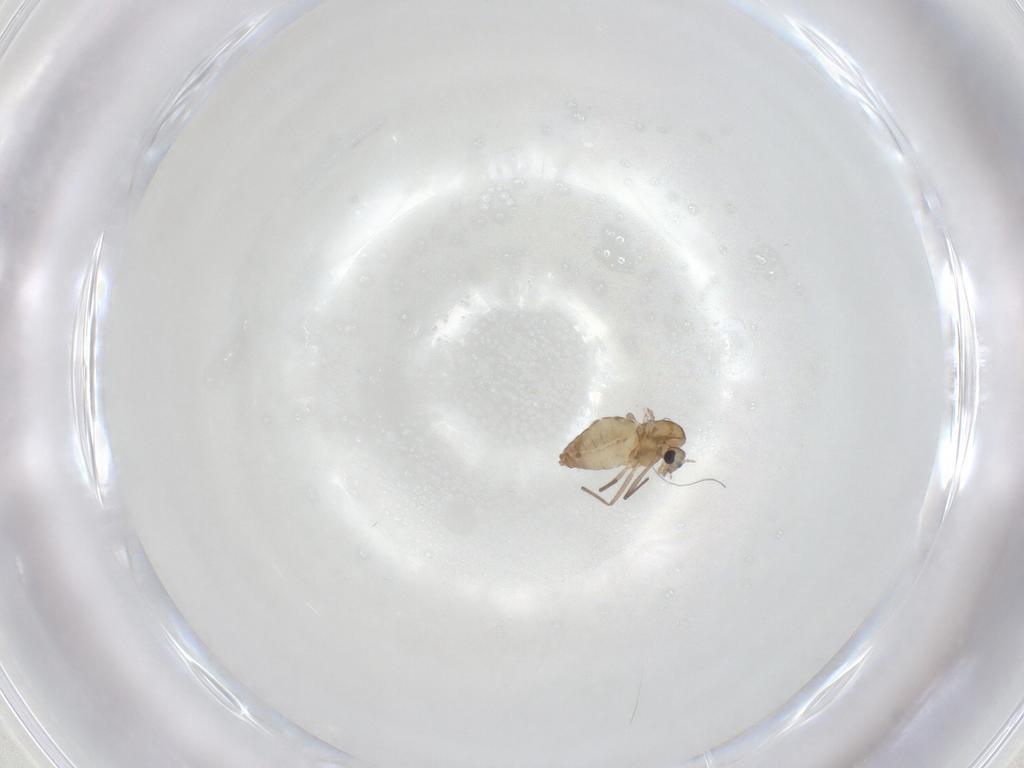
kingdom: Animalia
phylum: Arthropoda
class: Insecta
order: Diptera
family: Chironomidae
